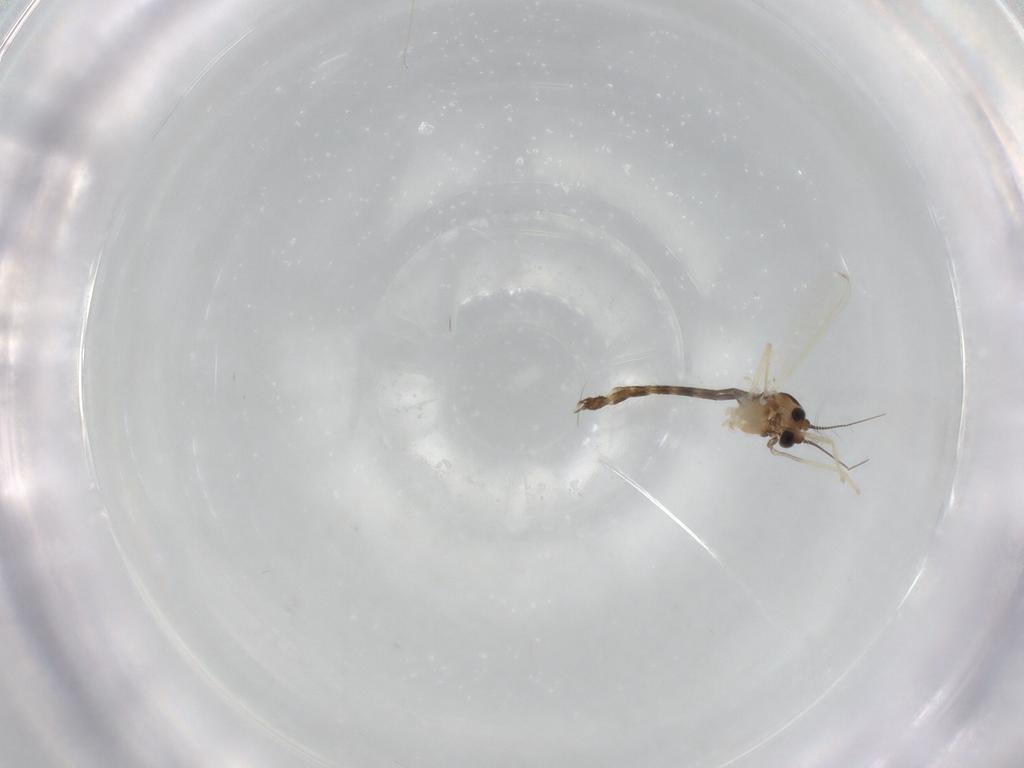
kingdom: Animalia
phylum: Arthropoda
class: Insecta
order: Diptera
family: Chironomidae
